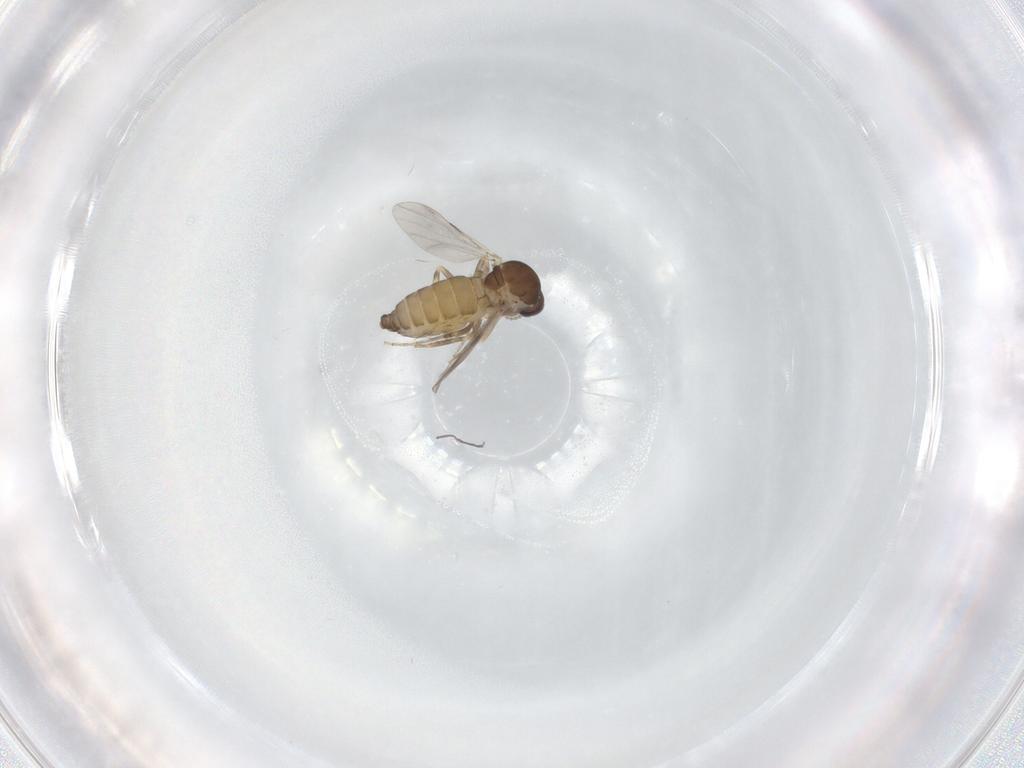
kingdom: Animalia
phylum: Arthropoda
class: Insecta
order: Diptera
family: Ceratopogonidae
